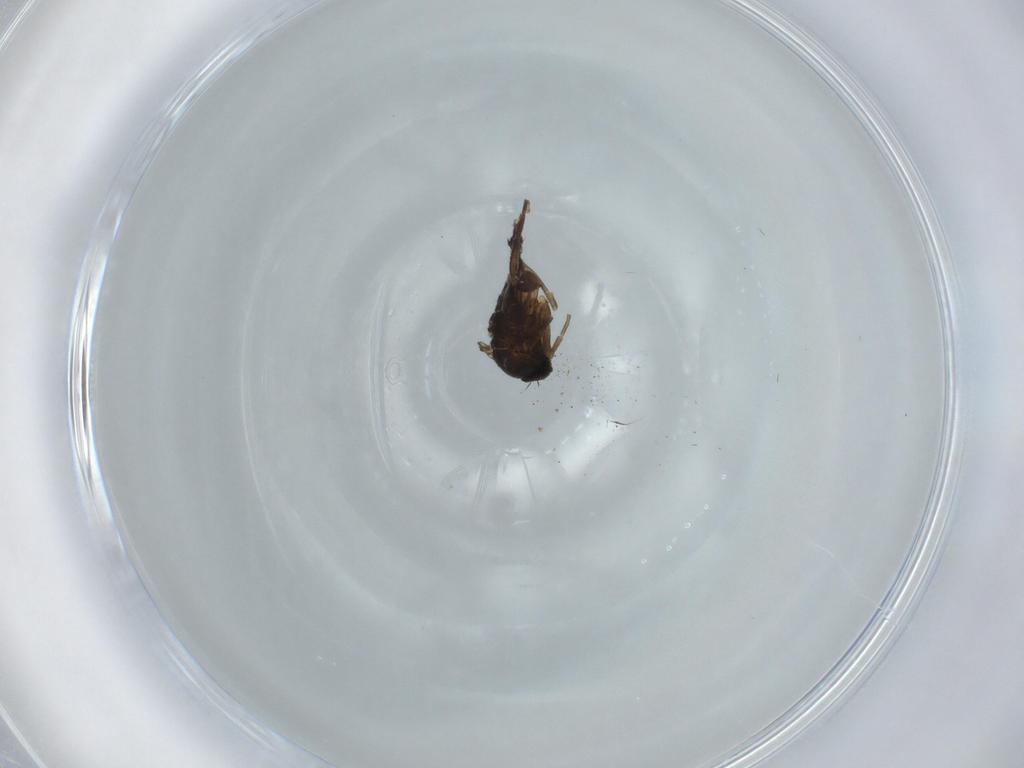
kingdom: Animalia
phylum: Arthropoda
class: Insecta
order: Diptera
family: Phoridae
